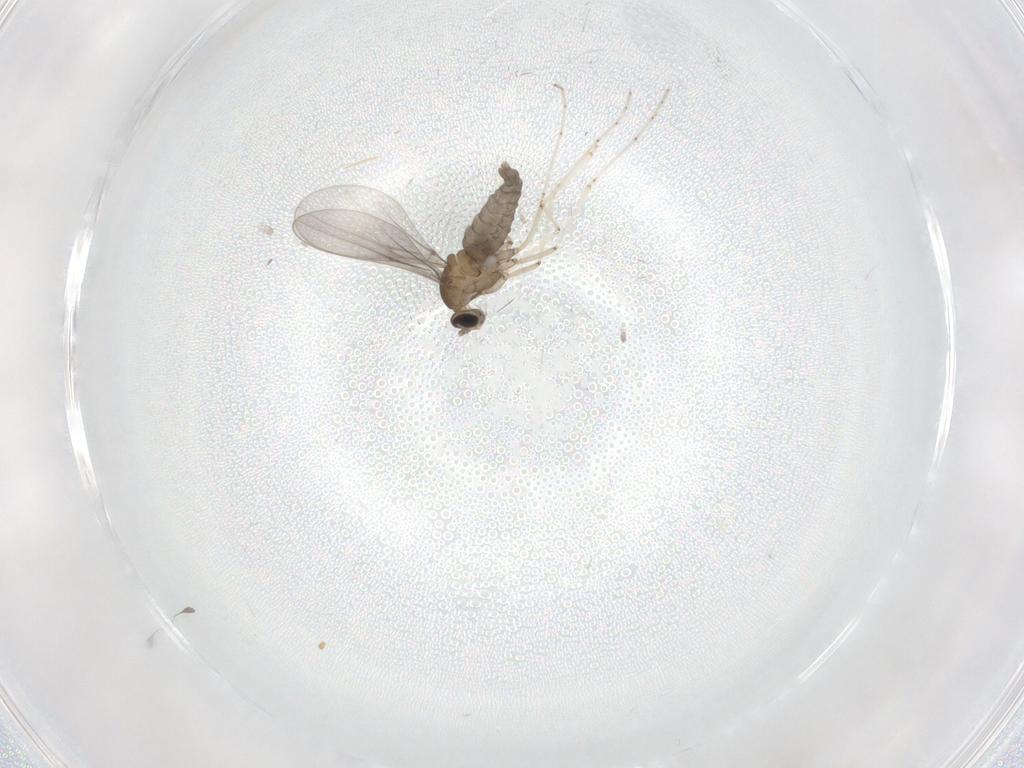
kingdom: Animalia
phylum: Arthropoda
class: Insecta
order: Diptera
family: Cecidomyiidae
